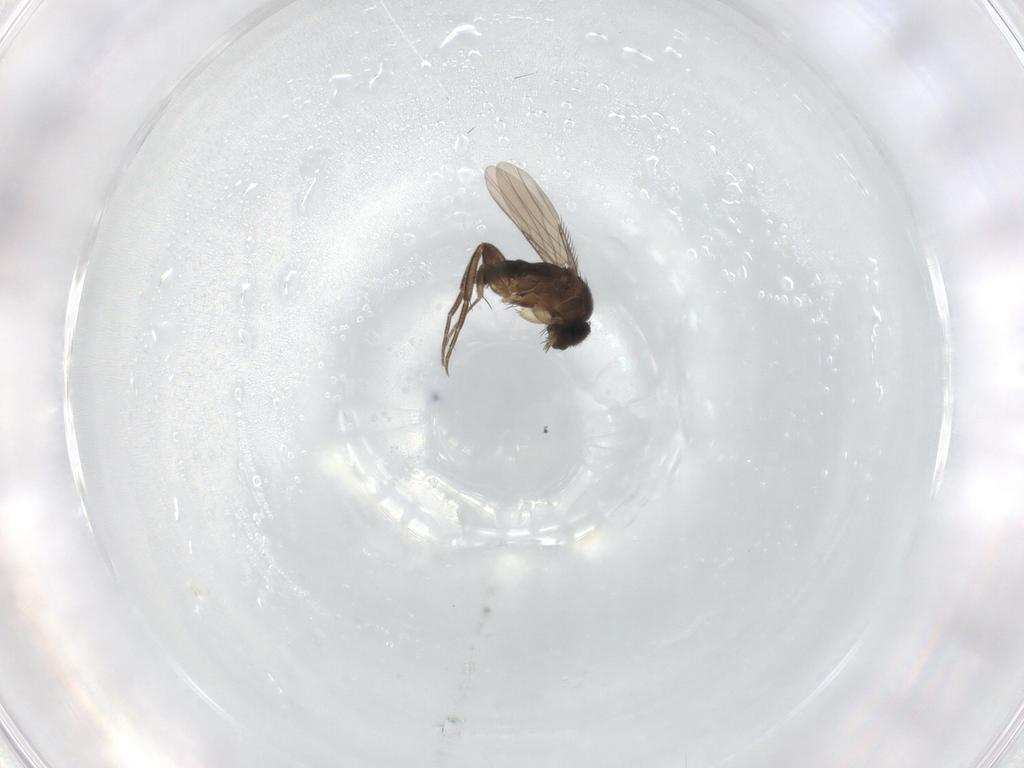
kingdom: Animalia
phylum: Arthropoda
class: Insecta
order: Diptera
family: Phoridae
